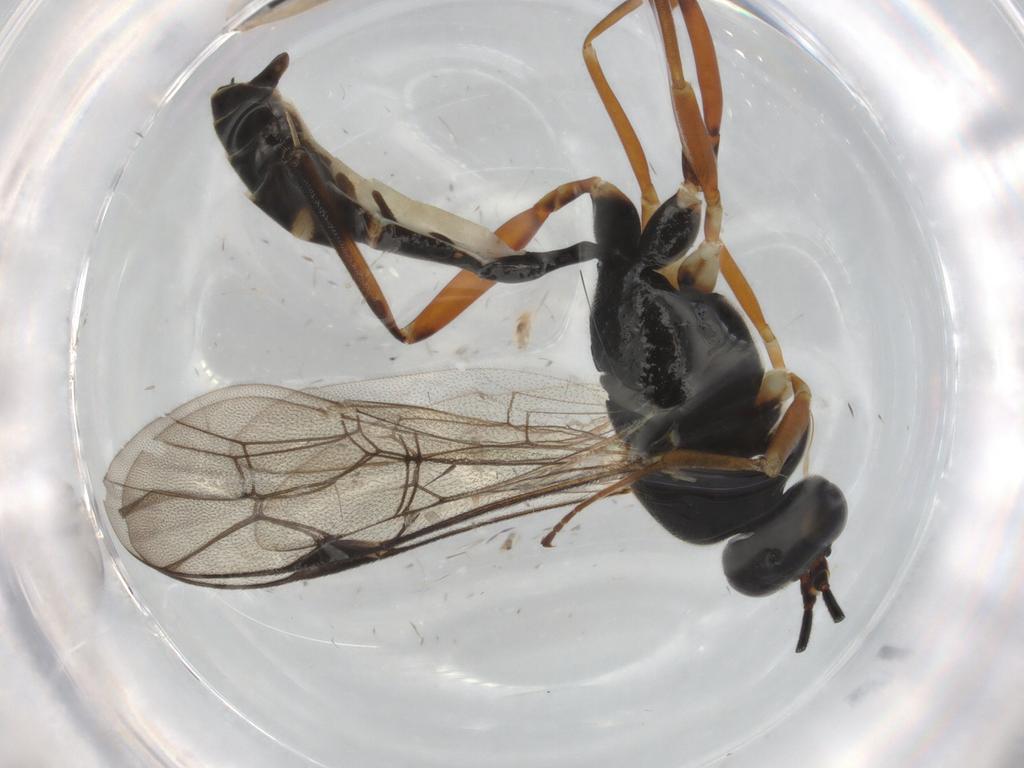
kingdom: Animalia
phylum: Arthropoda
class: Insecta
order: Hymenoptera
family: Ichneumonidae
